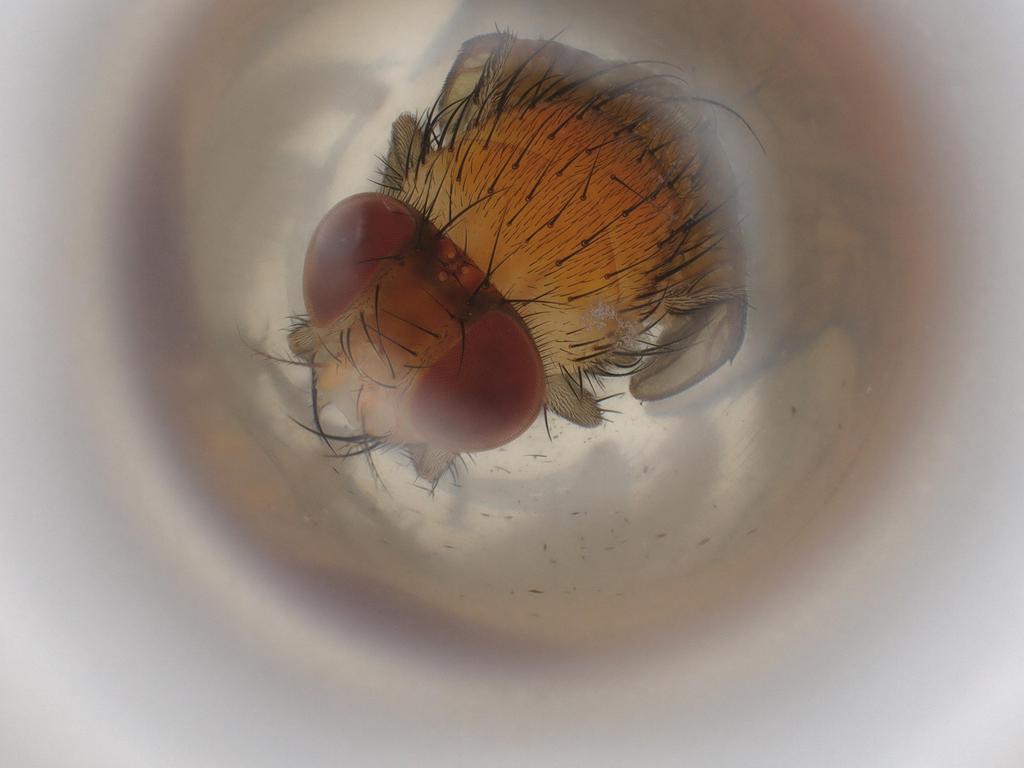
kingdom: Animalia
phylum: Arthropoda
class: Insecta
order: Diptera
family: Calliphoridae
